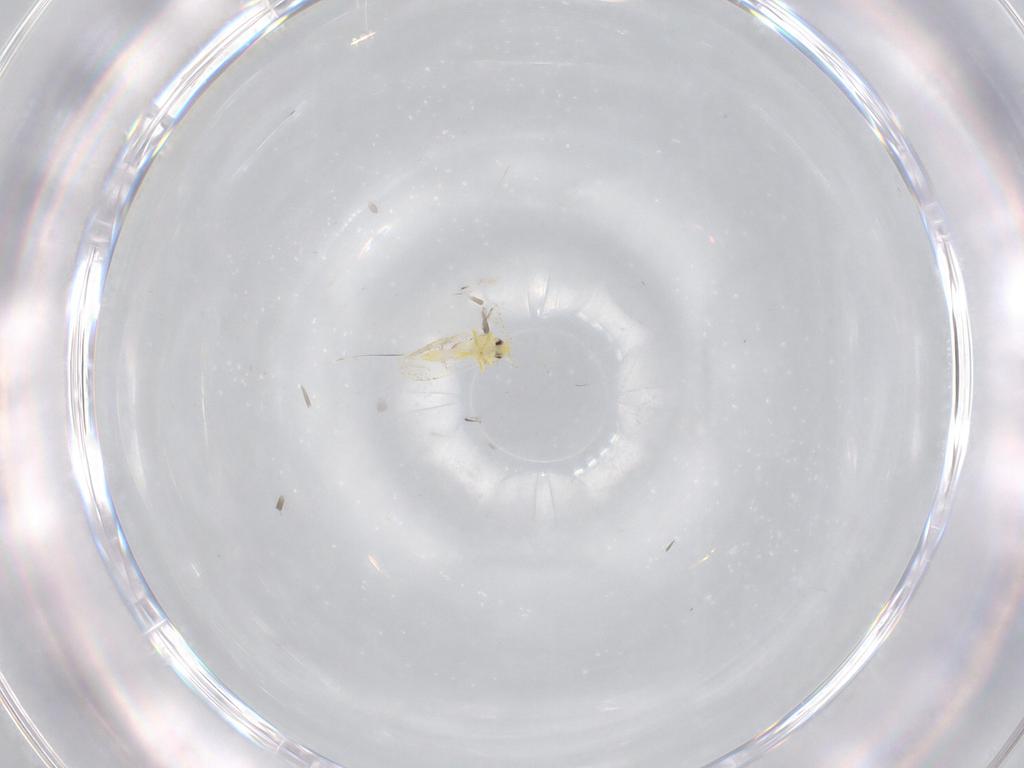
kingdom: Animalia
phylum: Arthropoda
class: Insecta
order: Hemiptera
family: Aleyrodidae
